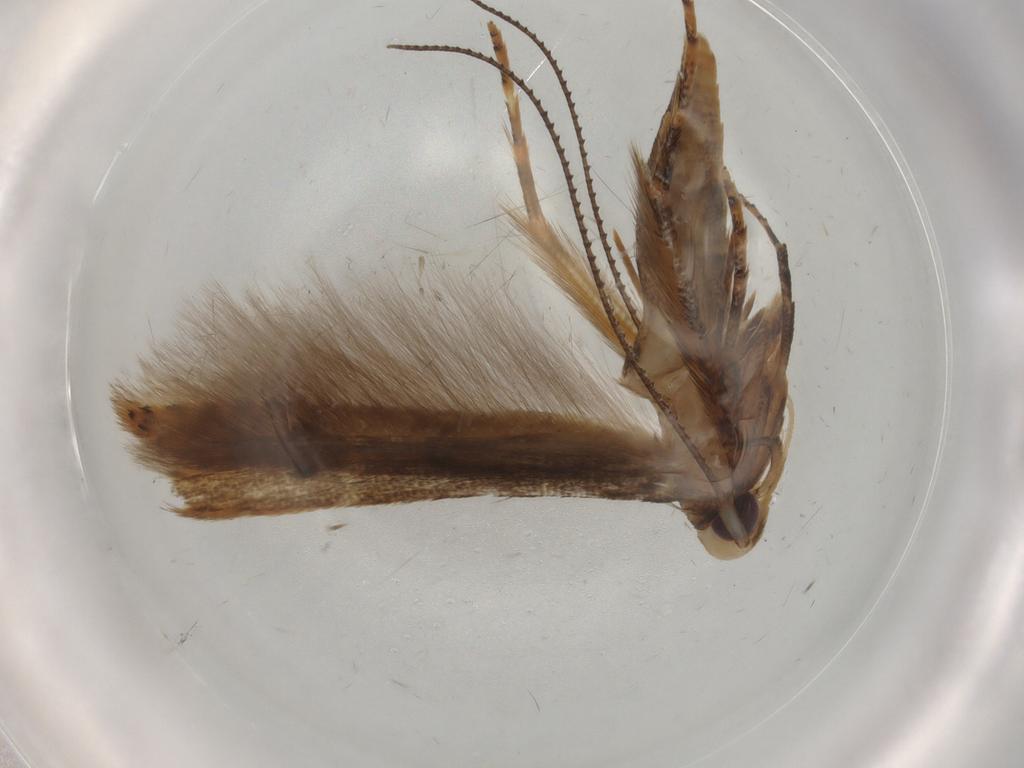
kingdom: Animalia
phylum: Arthropoda
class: Insecta
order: Lepidoptera
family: Gelechiidae
